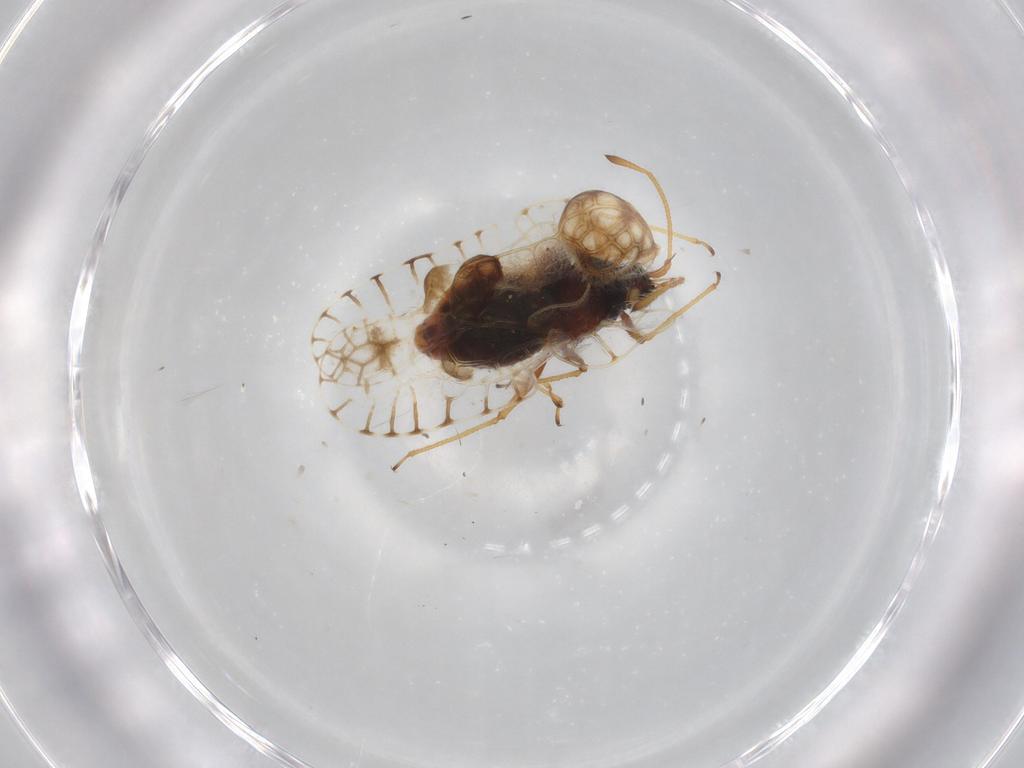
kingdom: Animalia
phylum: Arthropoda
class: Insecta
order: Hemiptera
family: Tingidae
